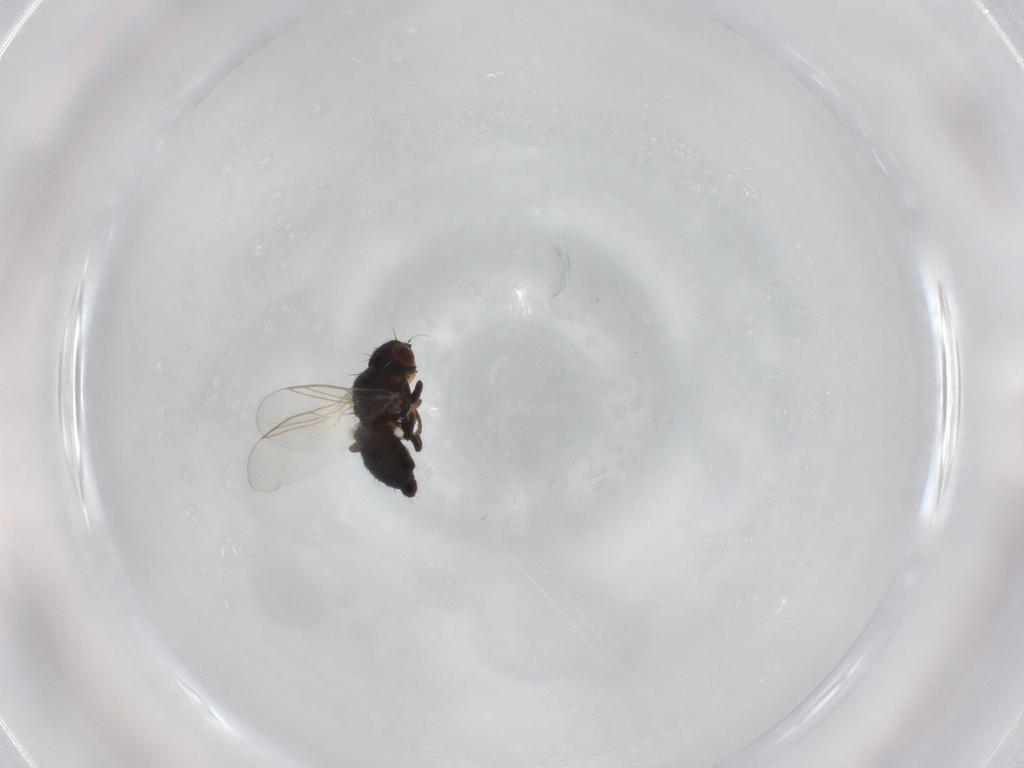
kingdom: Animalia
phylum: Arthropoda
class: Insecta
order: Diptera
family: Agromyzidae
